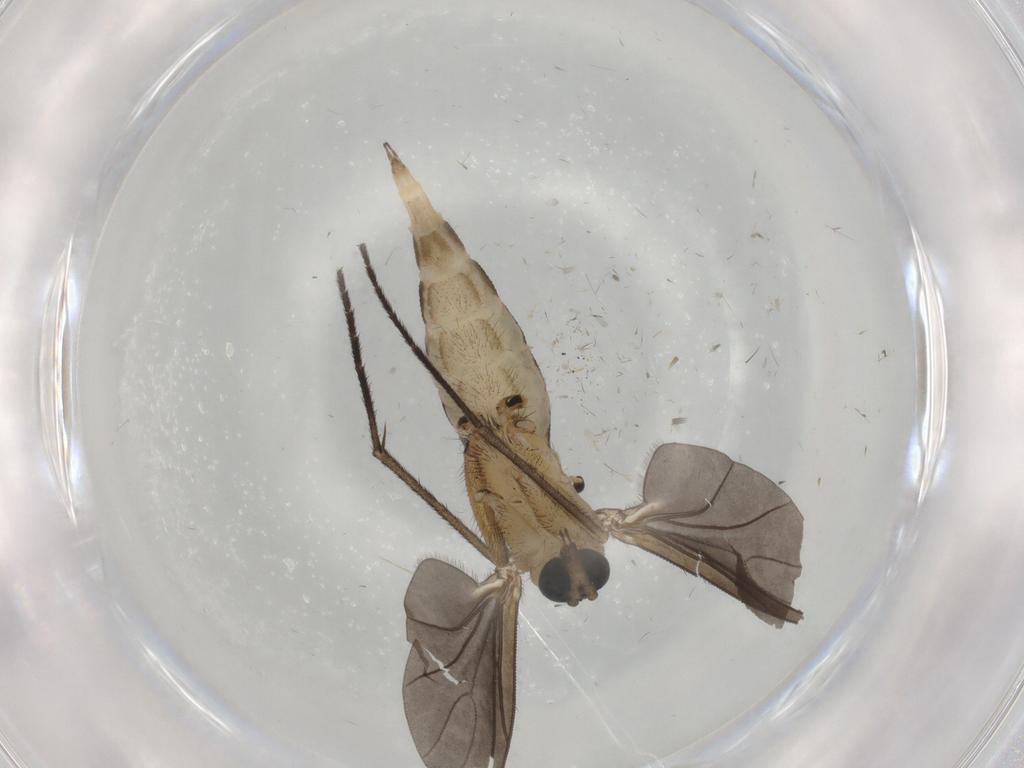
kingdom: Animalia
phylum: Arthropoda
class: Insecta
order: Diptera
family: Sciaridae
